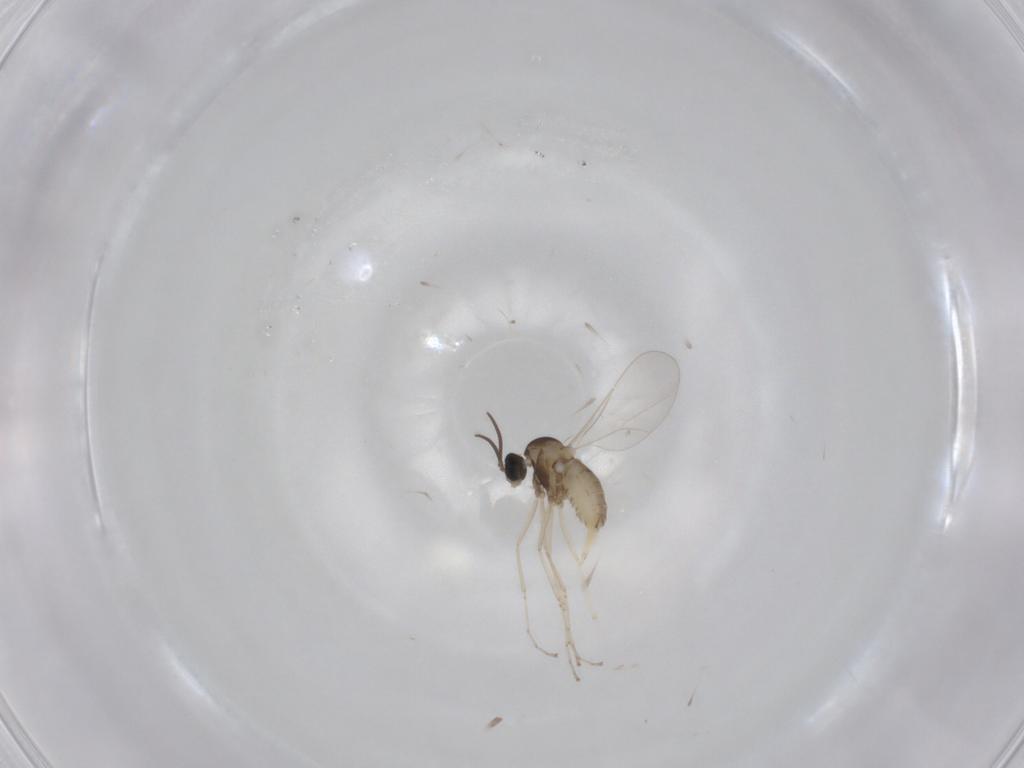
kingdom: Animalia
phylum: Arthropoda
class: Insecta
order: Diptera
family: Cecidomyiidae
